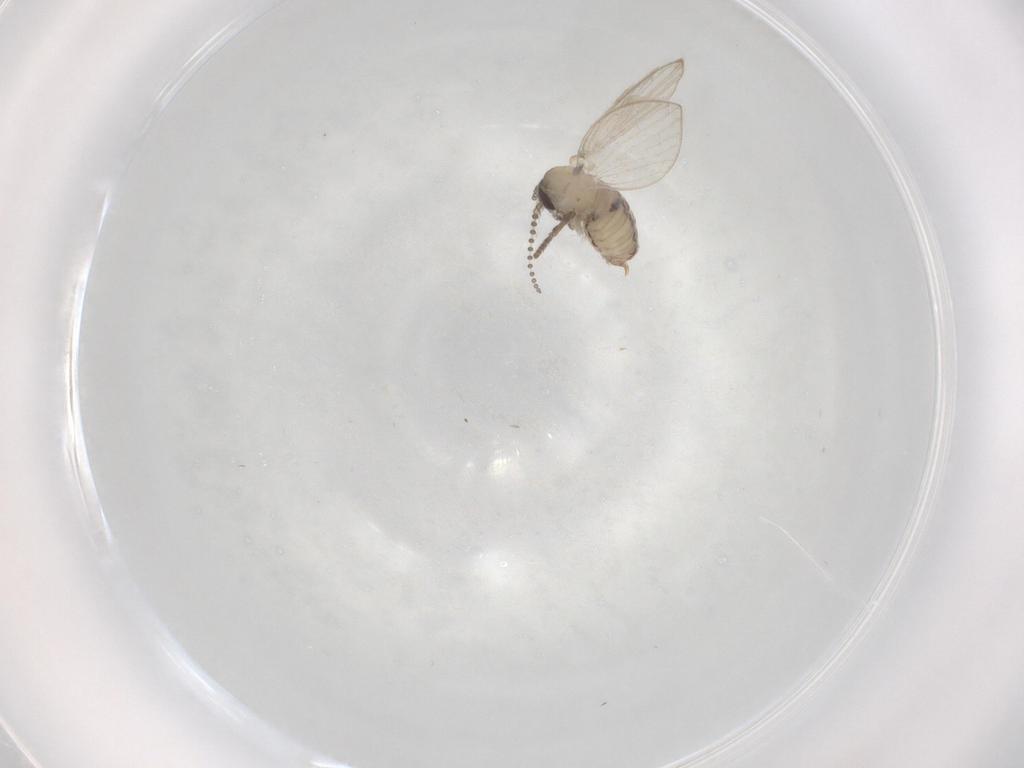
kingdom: Animalia
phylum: Arthropoda
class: Insecta
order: Diptera
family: Psychodidae
